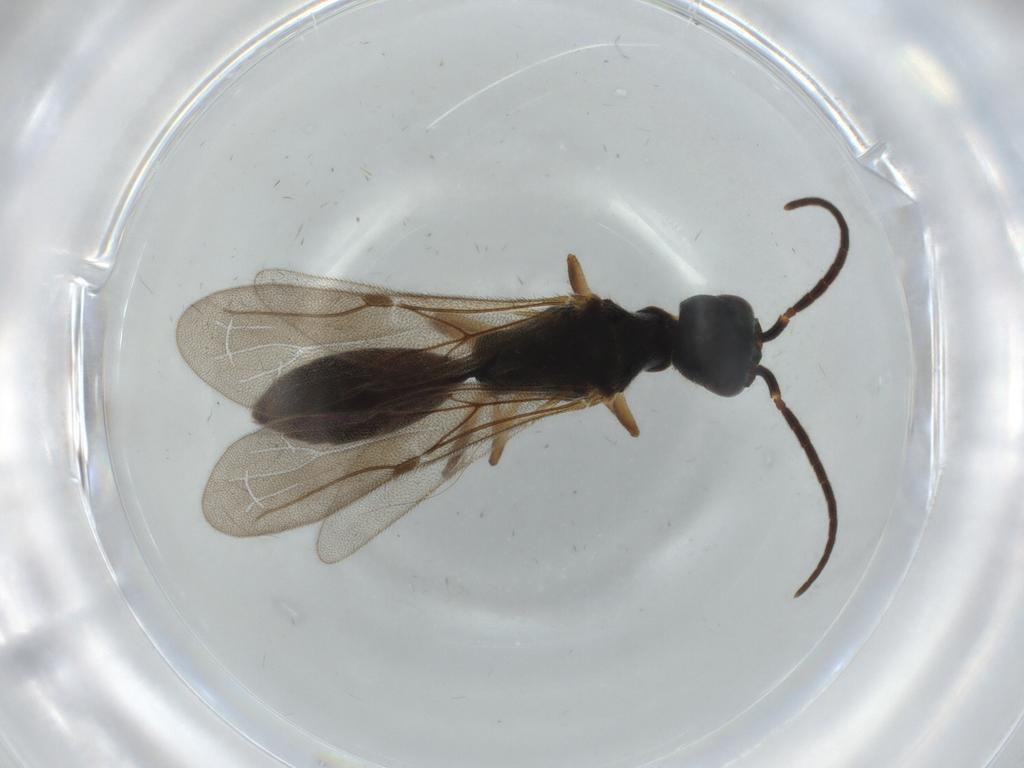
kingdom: Animalia
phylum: Arthropoda
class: Insecta
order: Hymenoptera
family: Bethylidae
